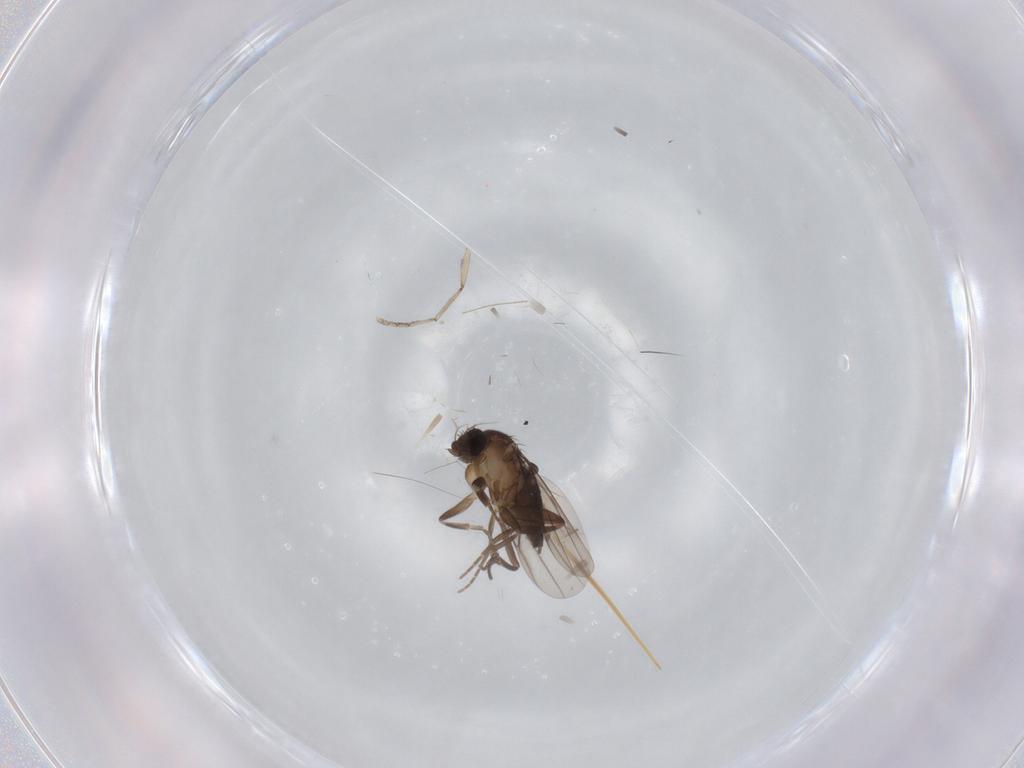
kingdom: Animalia
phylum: Arthropoda
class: Insecta
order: Diptera
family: Phoridae
